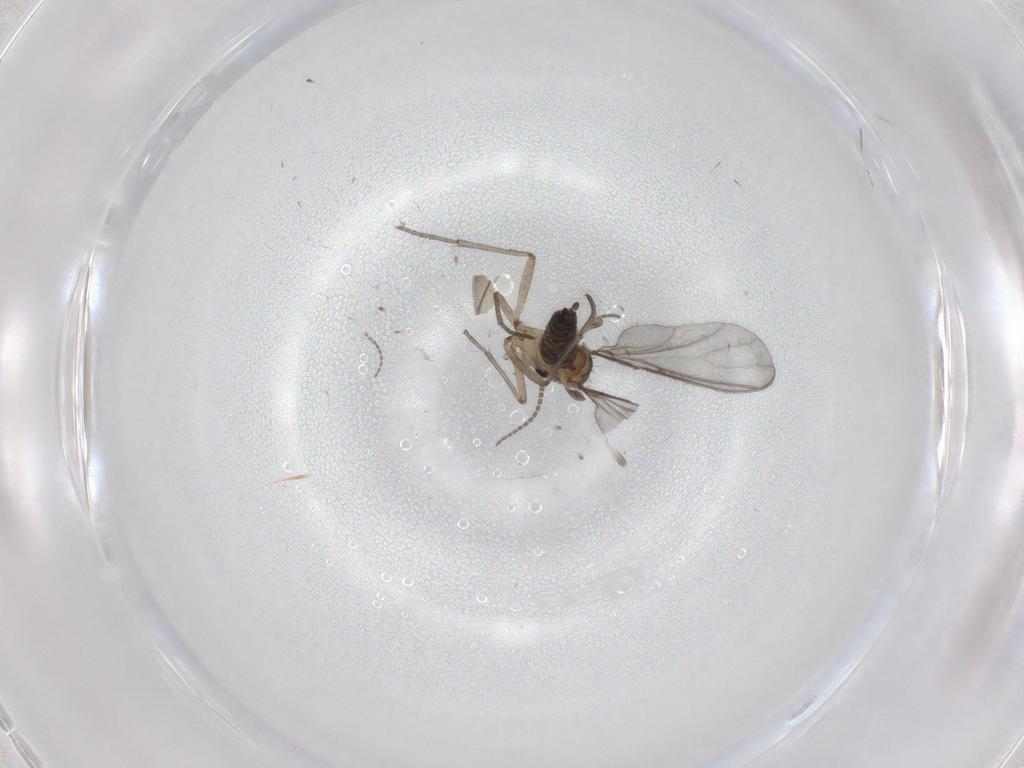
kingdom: Animalia
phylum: Arthropoda
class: Insecta
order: Diptera
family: Sciaridae
